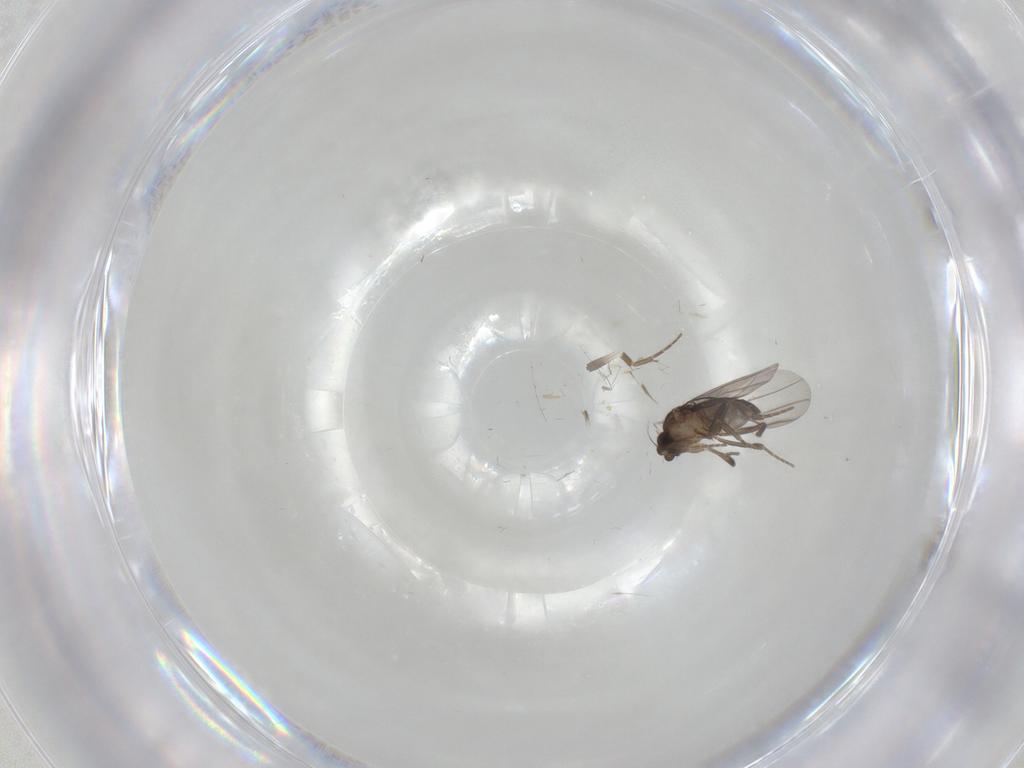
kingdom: Animalia
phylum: Arthropoda
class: Insecta
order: Diptera
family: Phoridae
